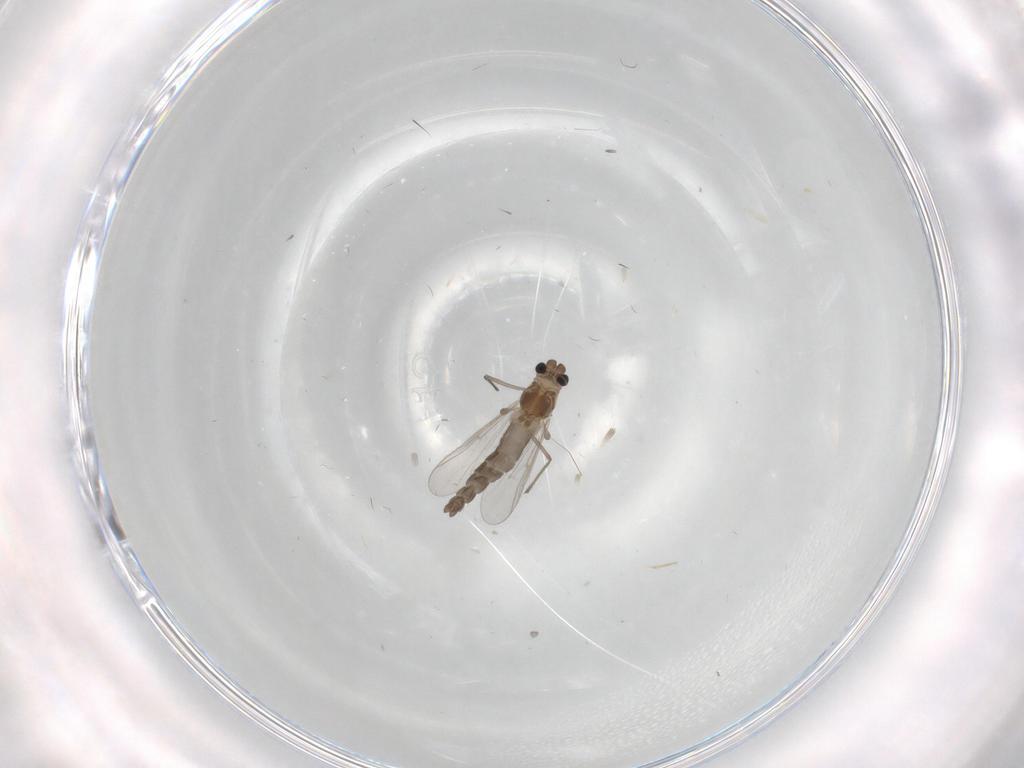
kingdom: Animalia
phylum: Arthropoda
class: Insecta
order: Diptera
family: Chironomidae
